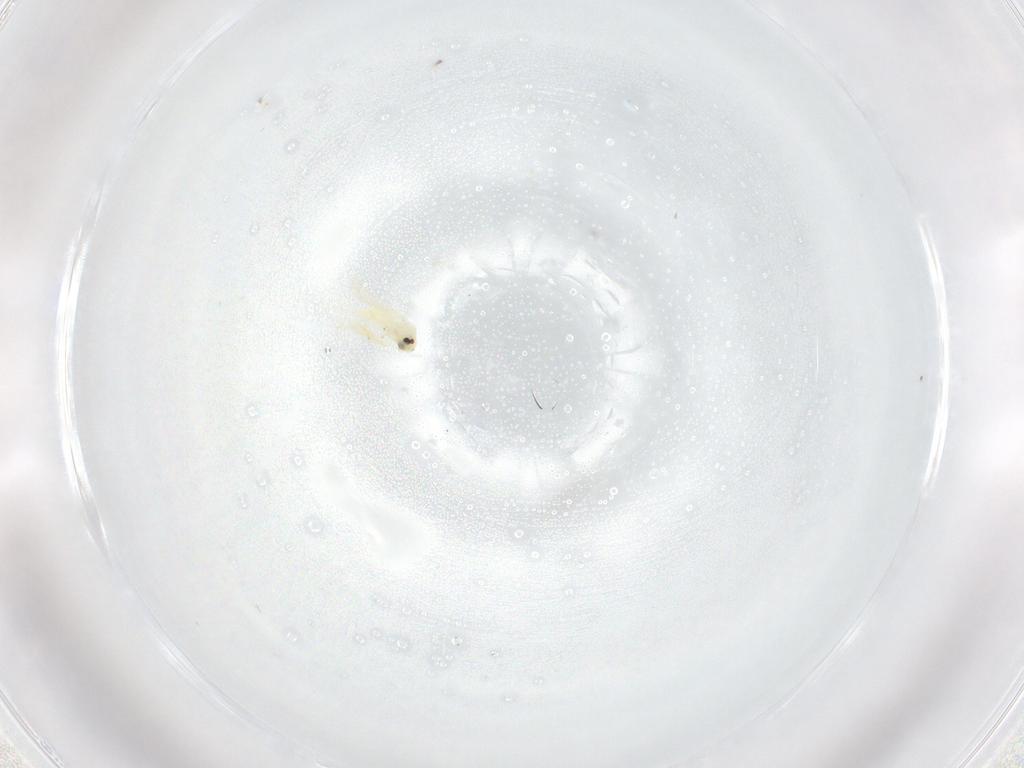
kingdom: Animalia
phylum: Arthropoda
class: Insecta
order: Hemiptera
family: Aleyrodidae
